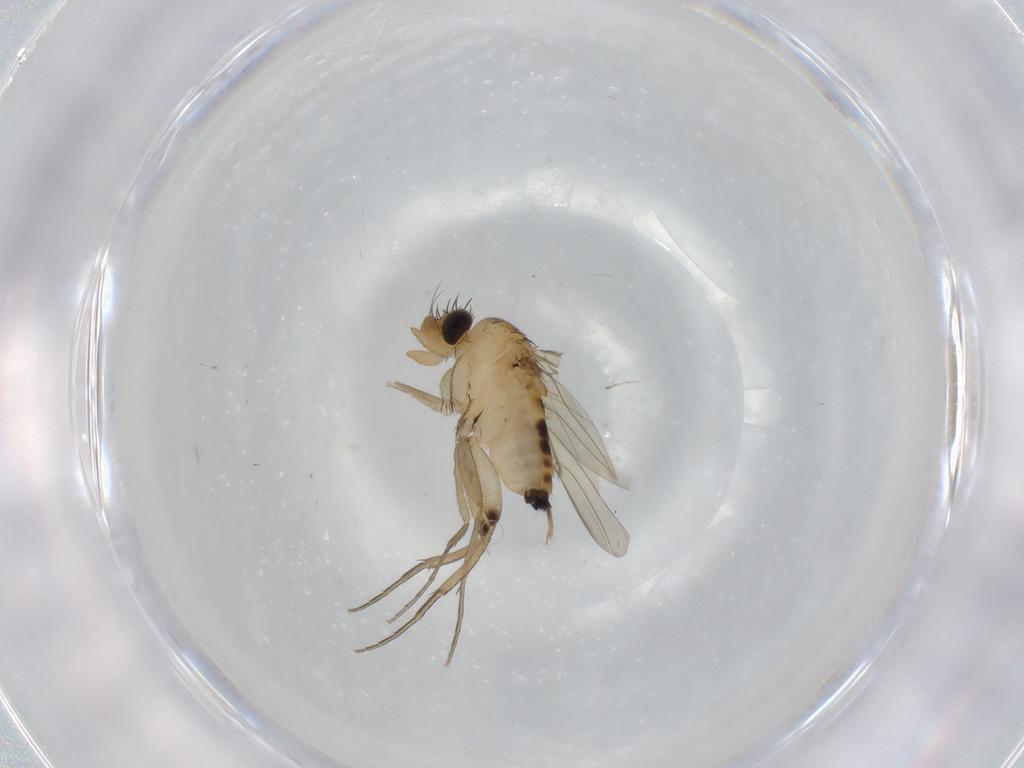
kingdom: Animalia
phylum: Arthropoda
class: Insecta
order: Diptera
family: Phoridae
